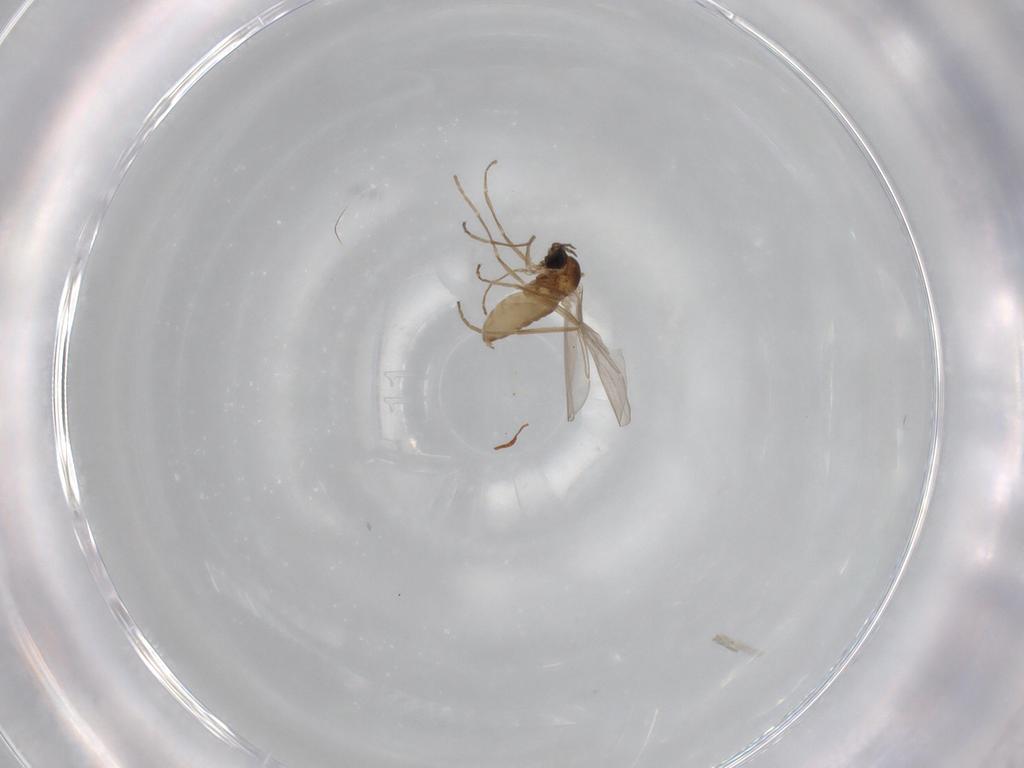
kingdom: Animalia
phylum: Arthropoda
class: Insecta
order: Diptera
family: Cecidomyiidae
